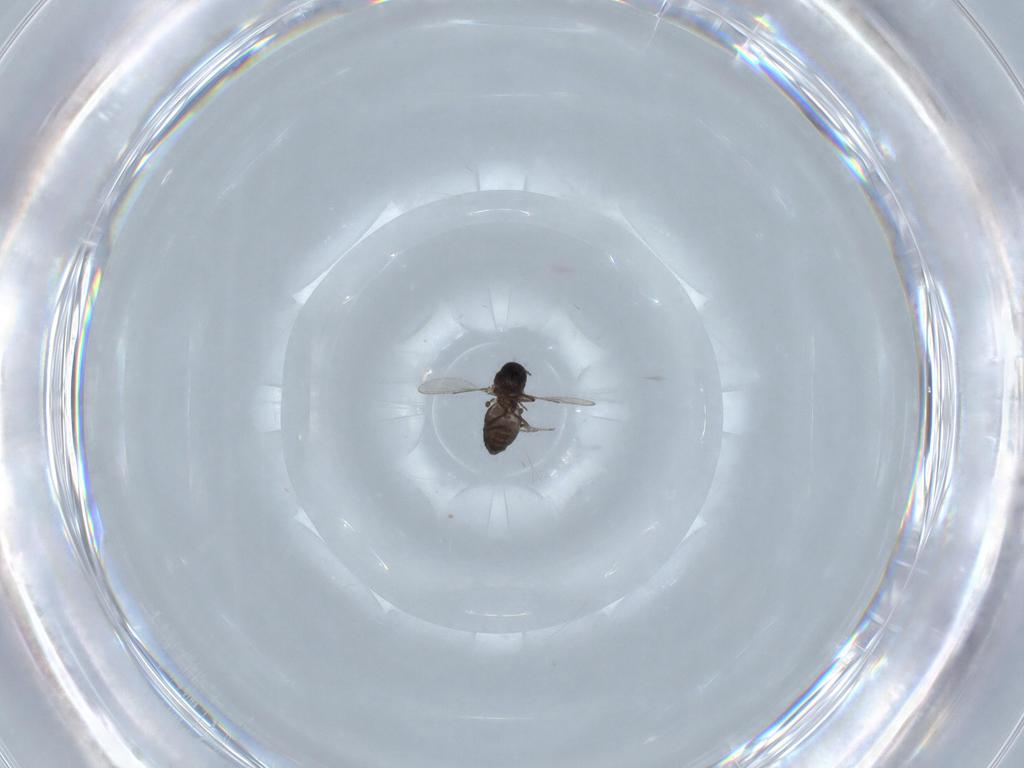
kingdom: Animalia
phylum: Arthropoda
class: Insecta
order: Diptera
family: Ceratopogonidae
